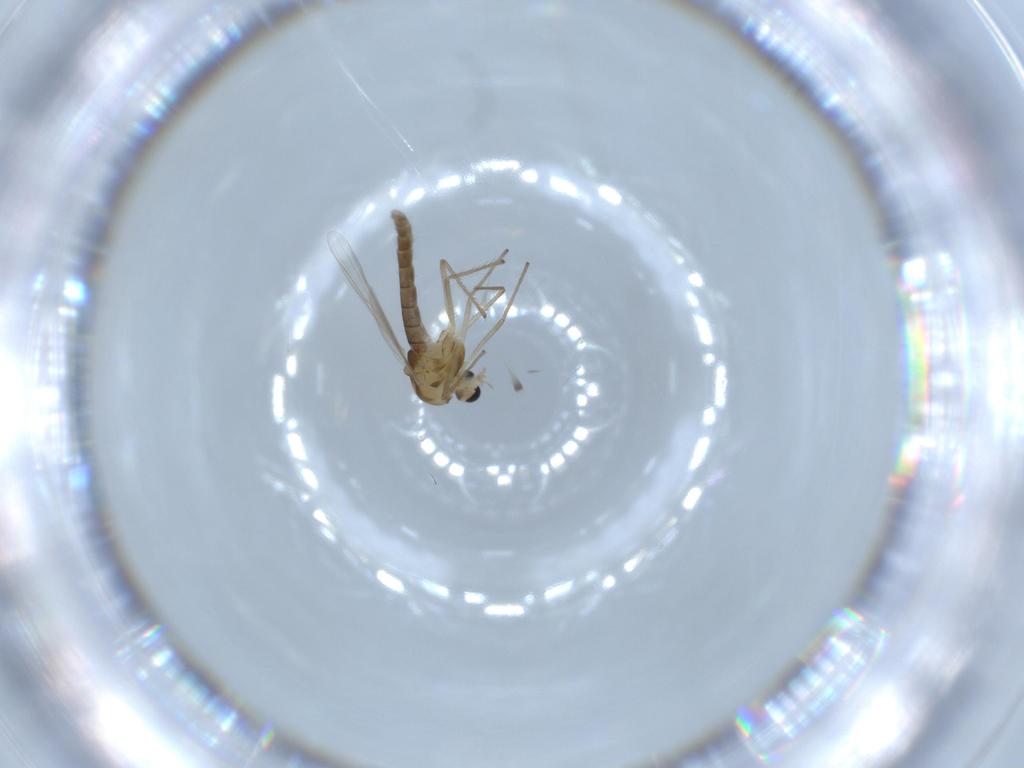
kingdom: Animalia
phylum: Arthropoda
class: Insecta
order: Diptera
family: Chironomidae
